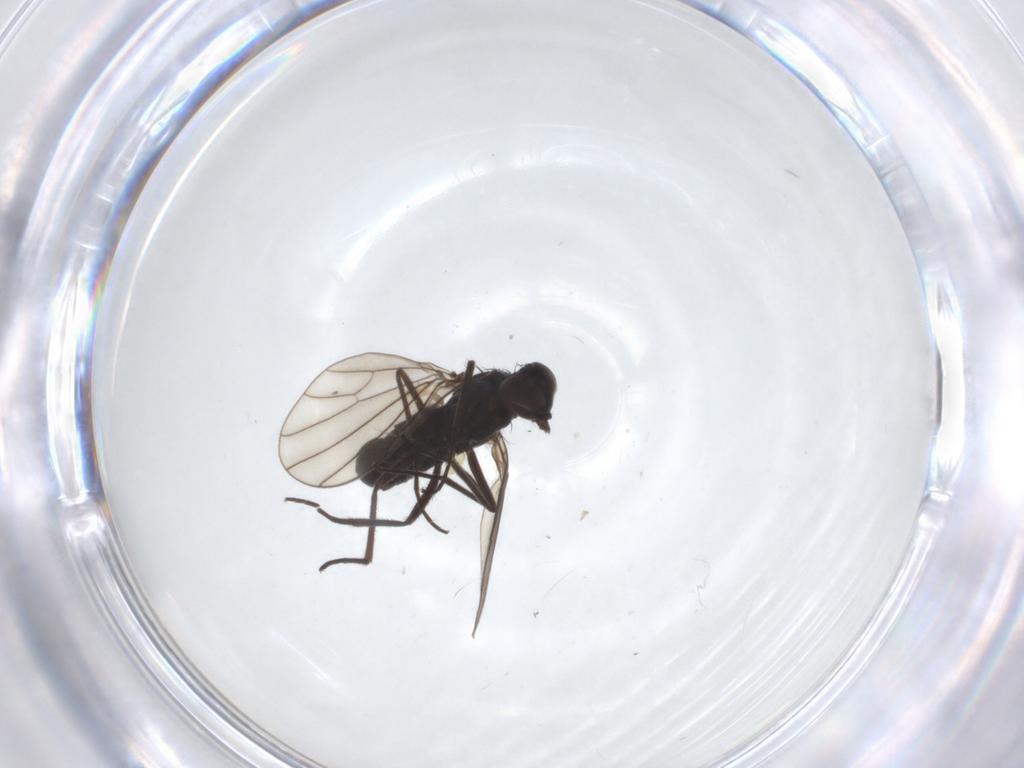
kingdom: Animalia
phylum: Arthropoda
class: Insecta
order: Diptera
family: Dolichopodidae
